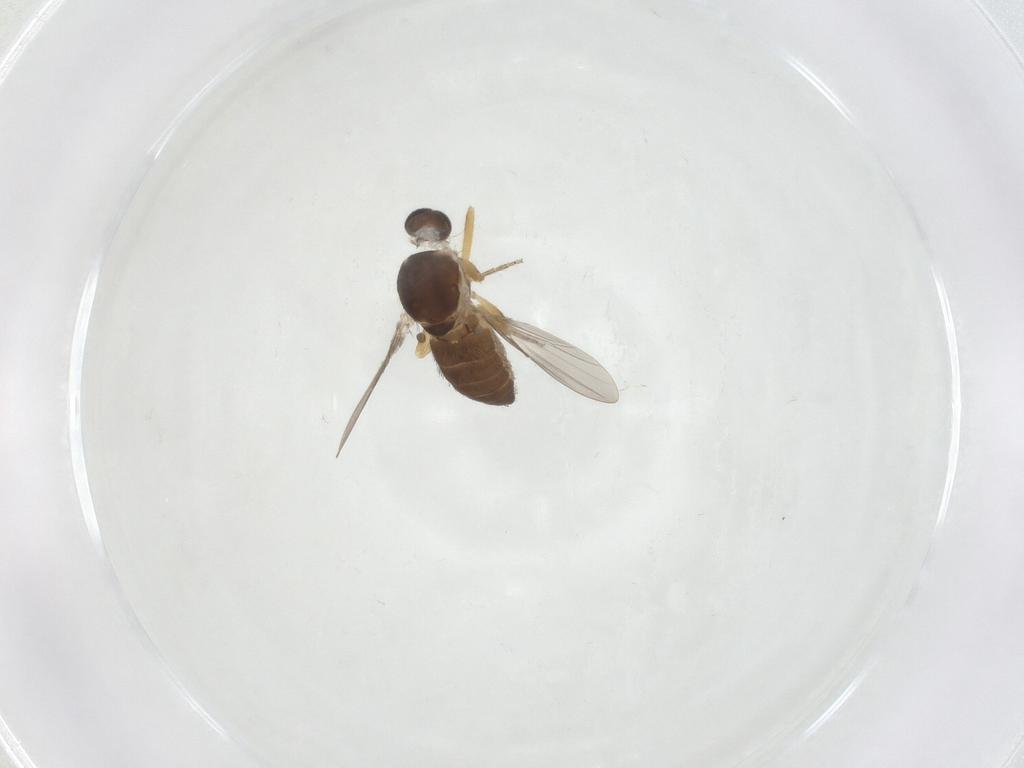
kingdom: Animalia
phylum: Arthropoda
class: Insecta
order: Diptera
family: Ceratopogonidae
